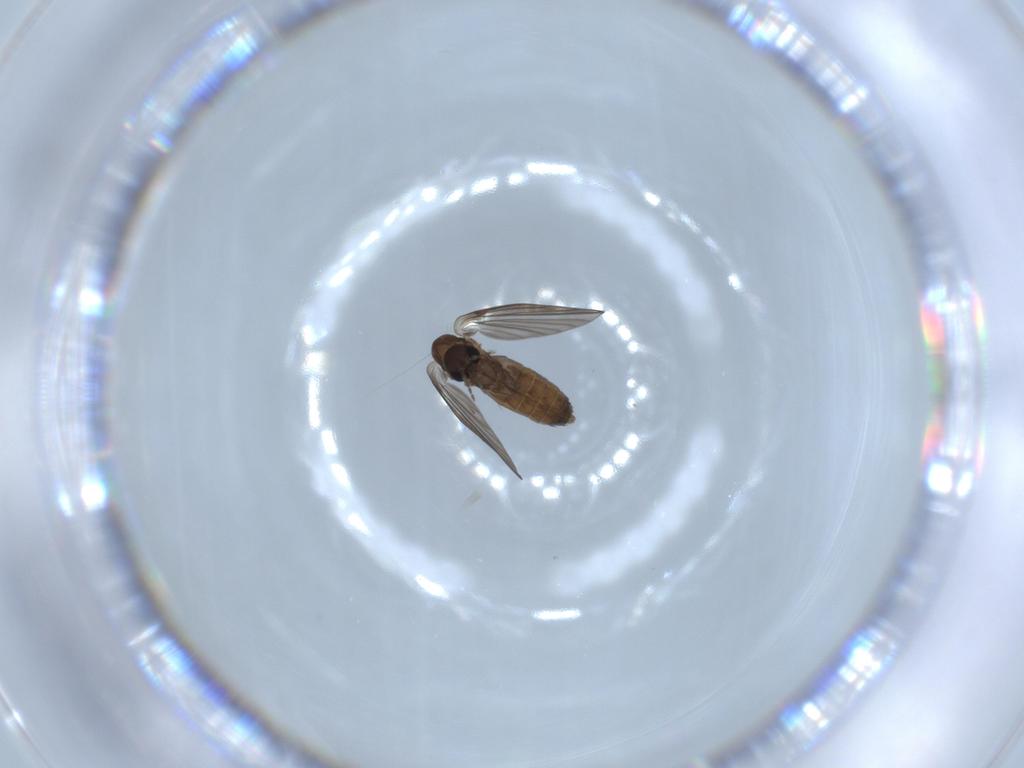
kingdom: Animalia
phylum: Arthropoda
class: Insecta
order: Diptera
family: Psychodidae
